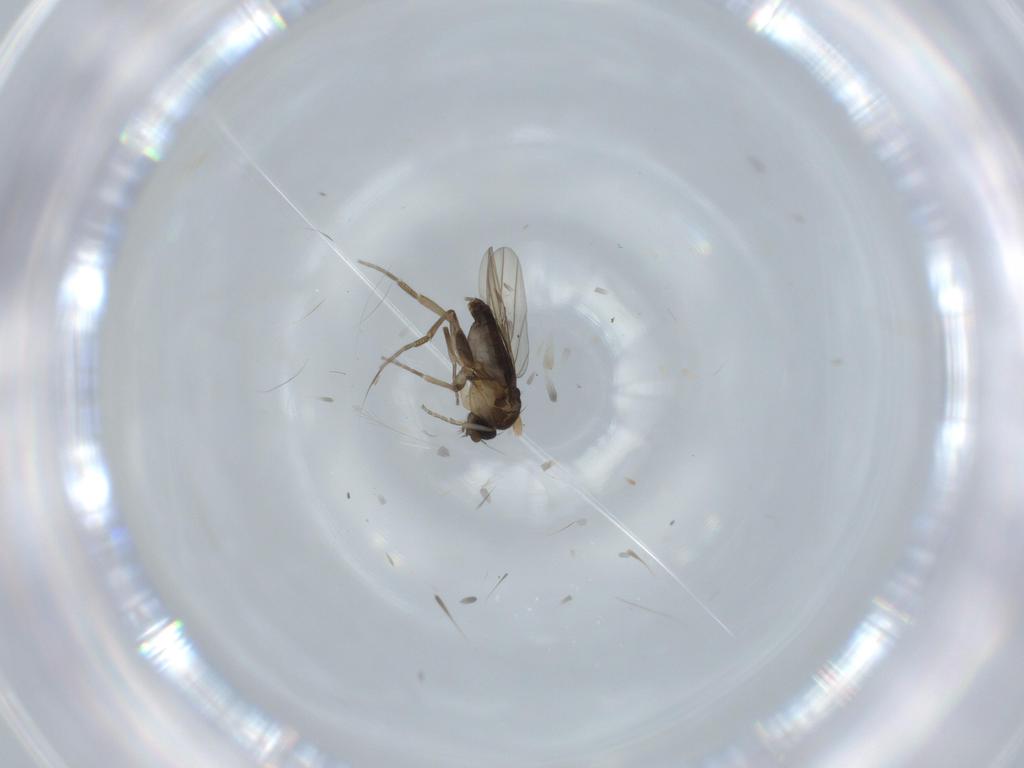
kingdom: Animalia
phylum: Arthropoda
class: Insecta
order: Diptera
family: Phoridae
